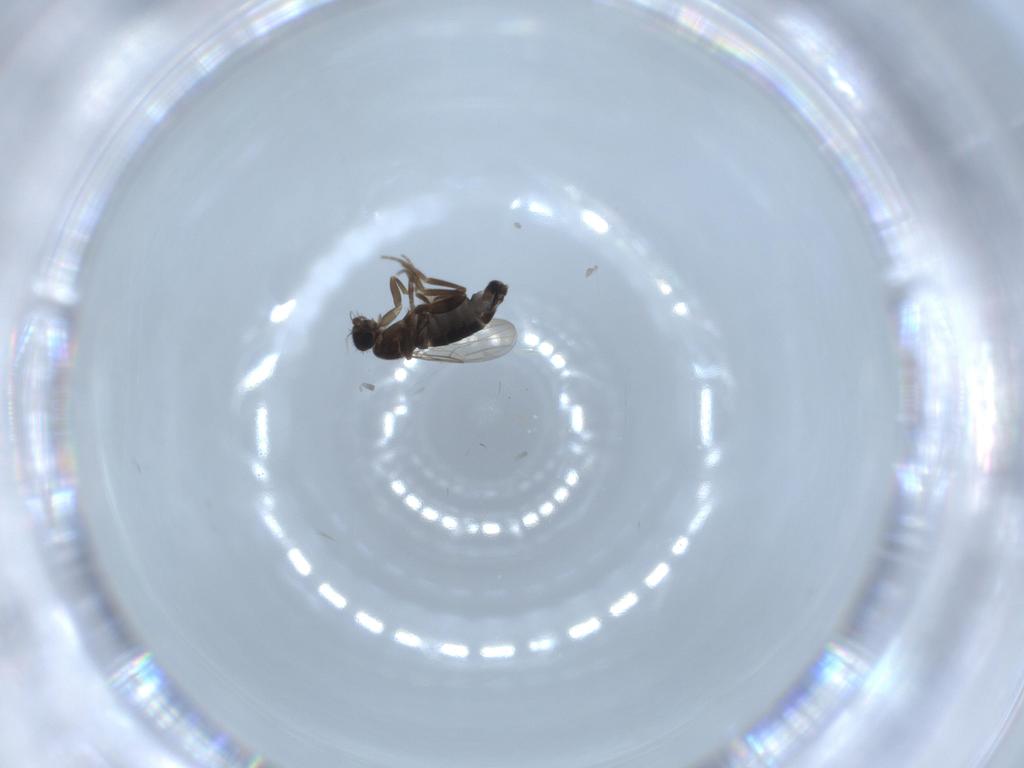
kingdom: Animalia
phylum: Arthropoda
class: Insecta
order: Diptera
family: Phoridae
